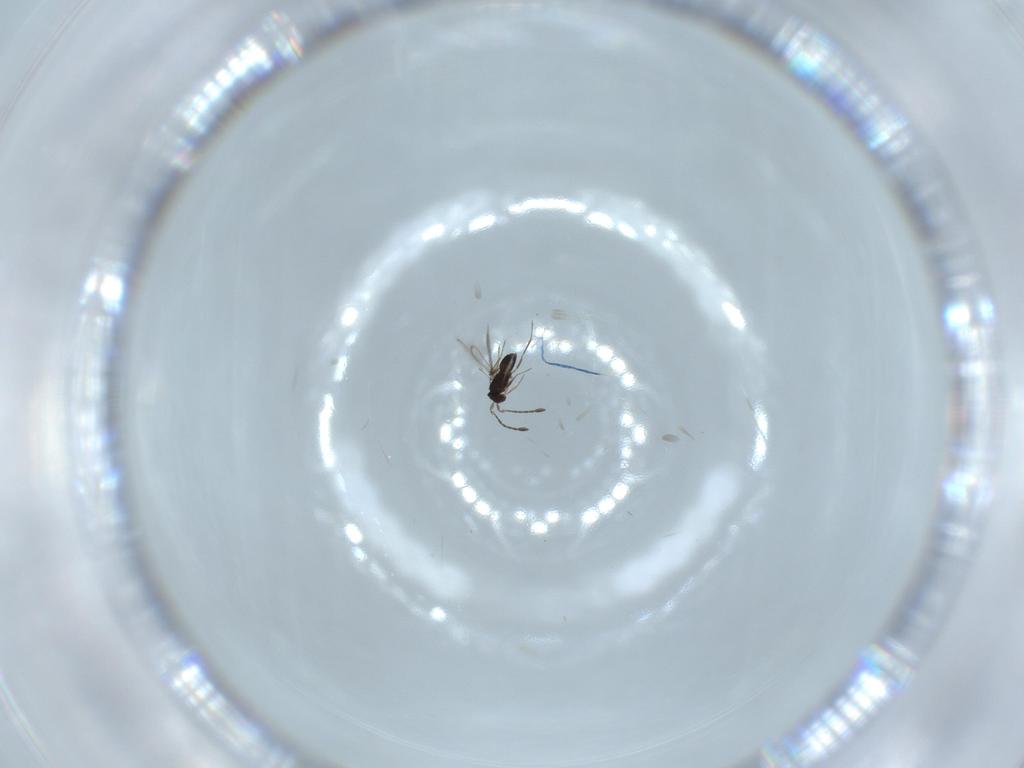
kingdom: Animalia
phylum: Arthropoda
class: Insecta
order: Hymenoptera
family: Mymaridae
